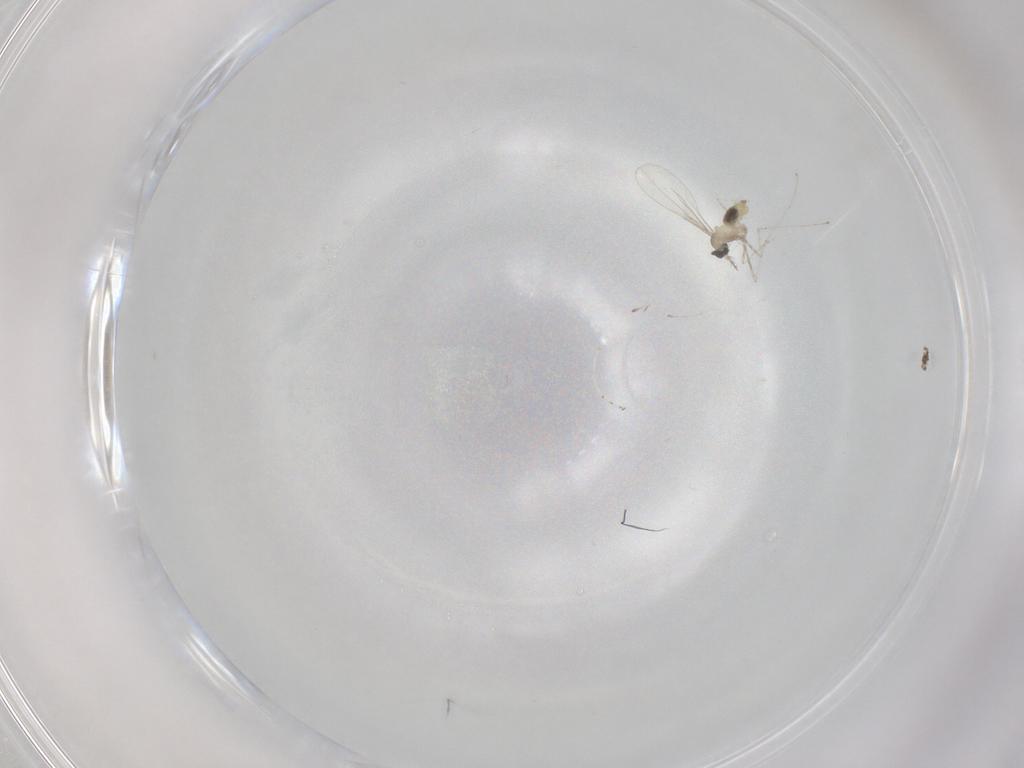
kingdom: Animalia
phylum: Arthropoda
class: Insecta
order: Diptera
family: Cecidomyiidae
